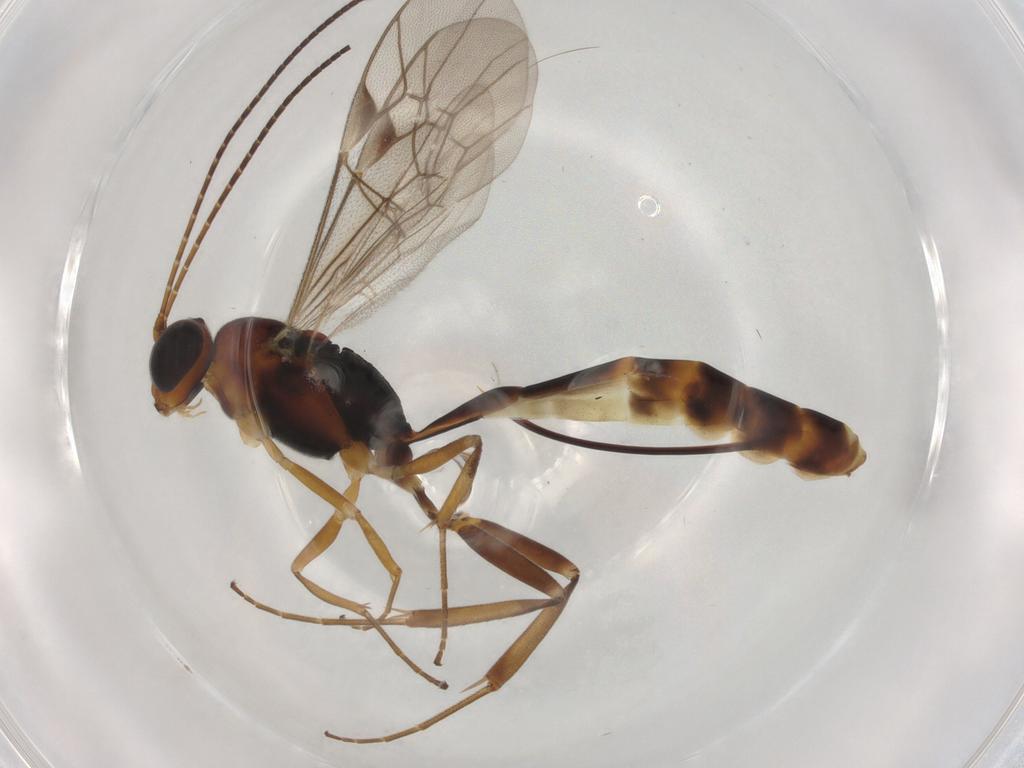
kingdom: Animalia
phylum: Arthropoda
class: Insecta
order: Hymenoptera
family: Ichneumonidae
